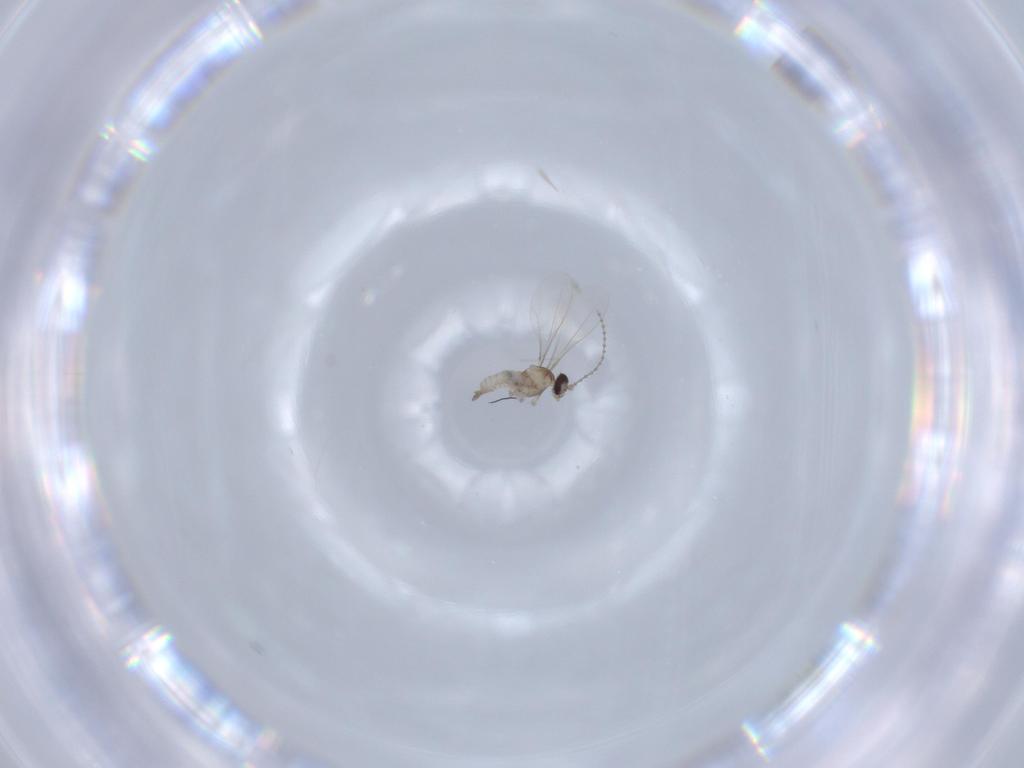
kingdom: Animalia
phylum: Arthropoda
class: Insecta
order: Diptera
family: Cecidomyiidae
